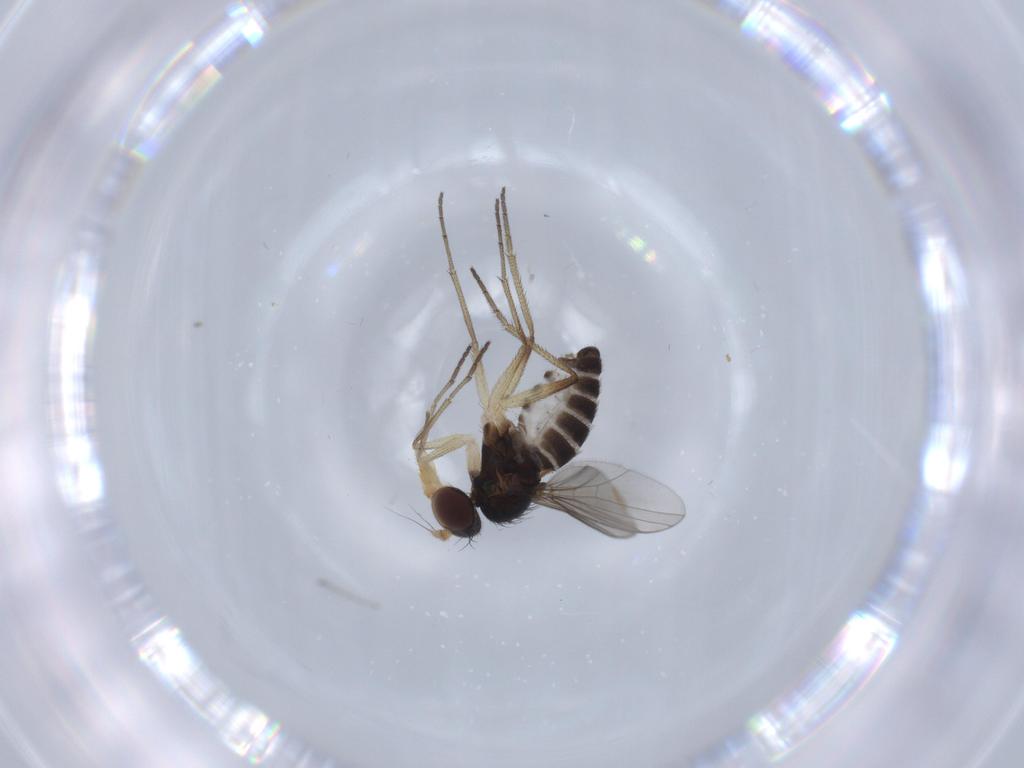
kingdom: Animalia
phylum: Arthropoda
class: Insecta
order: Diptera
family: Dolichopodidae
